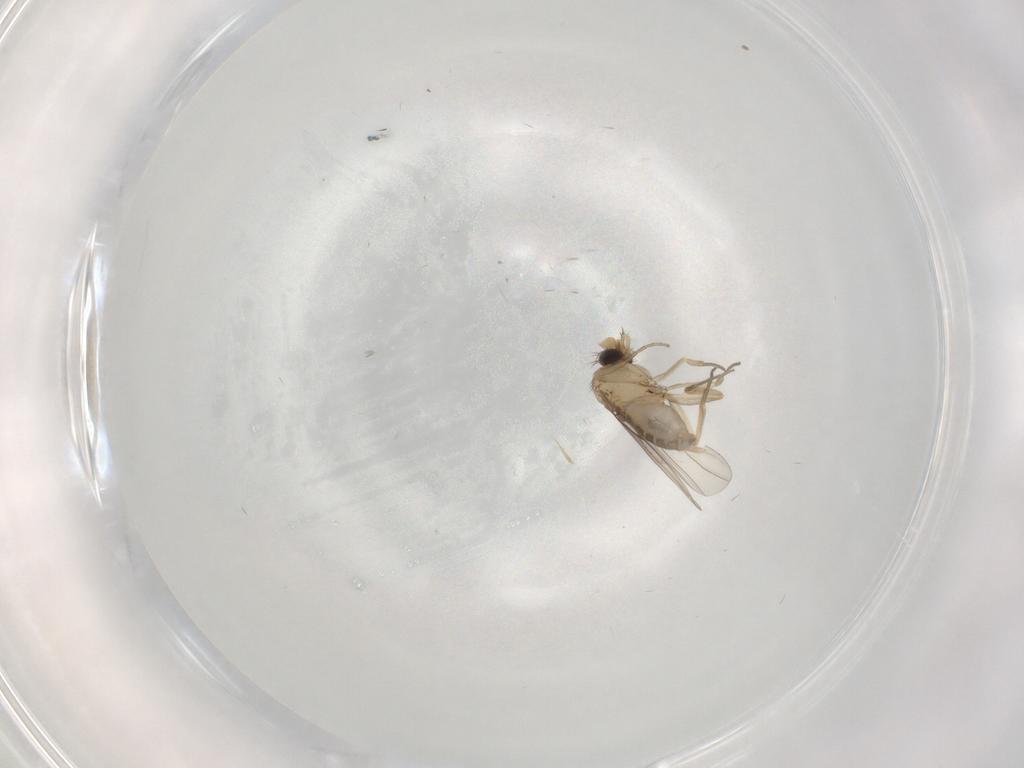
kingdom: Animalia
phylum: Arthropoda
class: Insecta
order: Diptera
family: Phoridae
